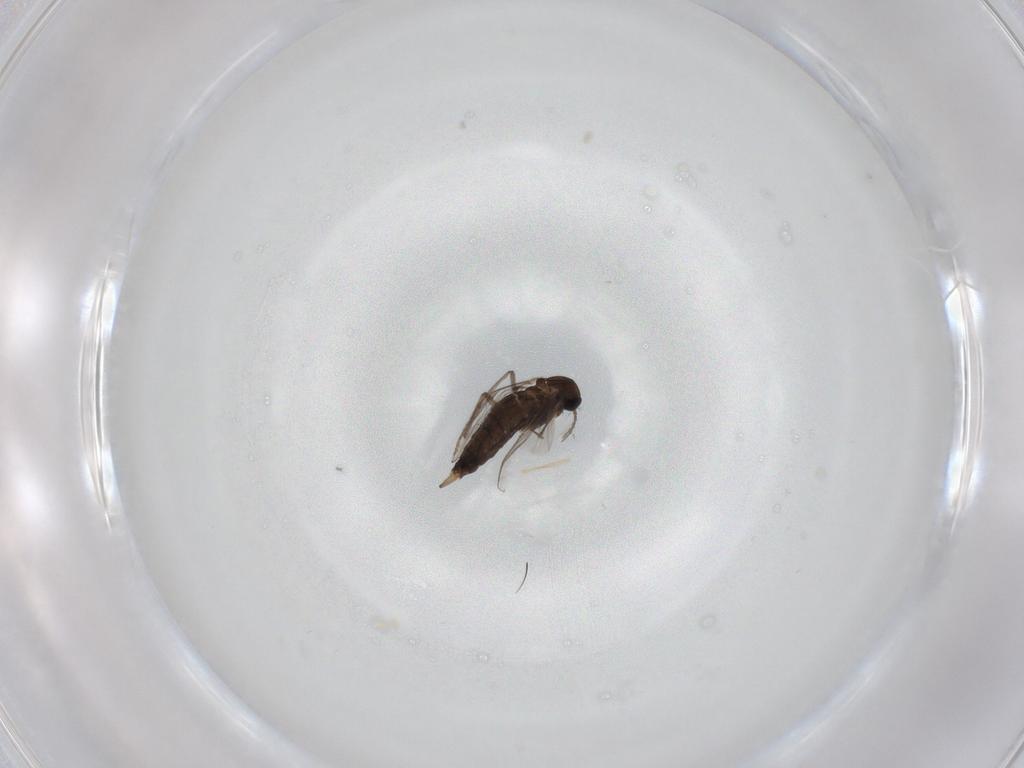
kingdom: Animalia
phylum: Arthropoda
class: Insecta
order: Diptera
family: Chironomidae
